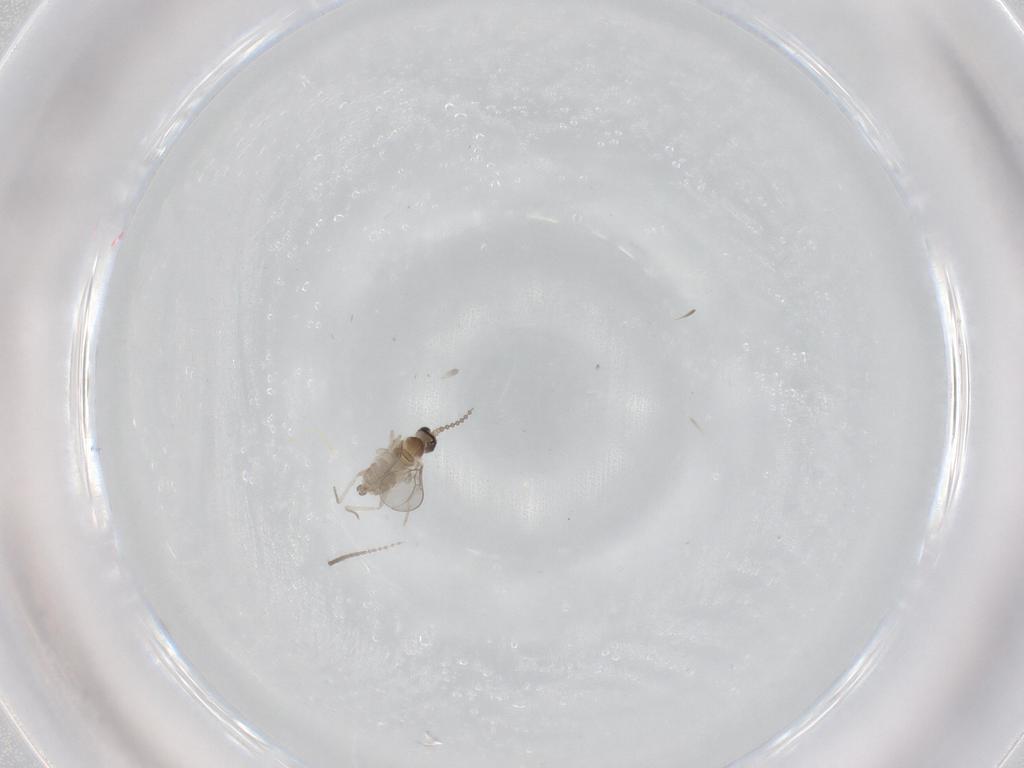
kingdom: Animalia
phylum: Arthropoda
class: Insecta
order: Diptera
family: Cecidomyiidae
